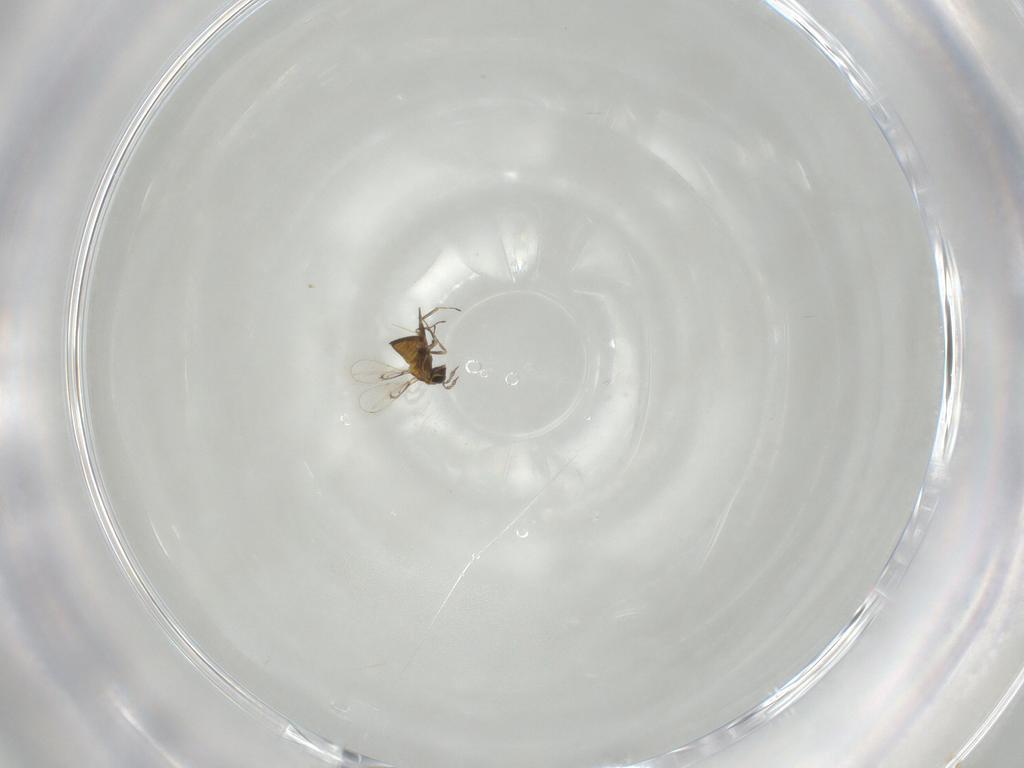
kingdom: Animalia
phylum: Arthropoda
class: Insecta
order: Hymenoptera
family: Trichogrammatidae
